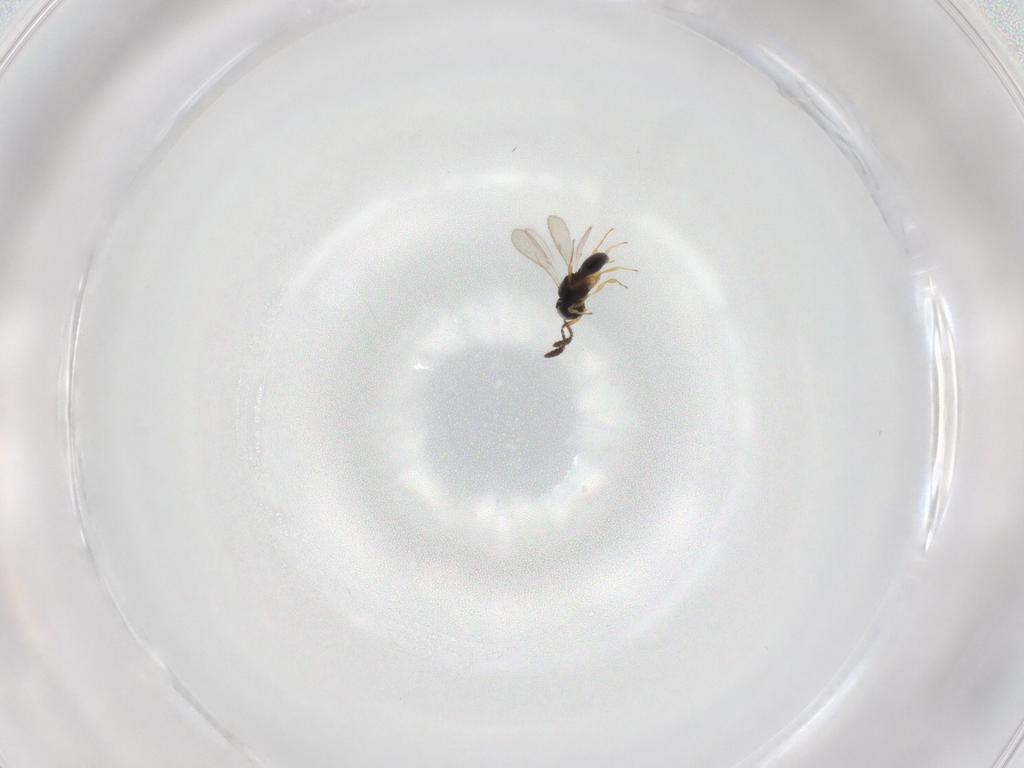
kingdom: Animalia
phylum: Arthropoda
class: Insecta
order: Hymenoptera
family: Scelionidae
